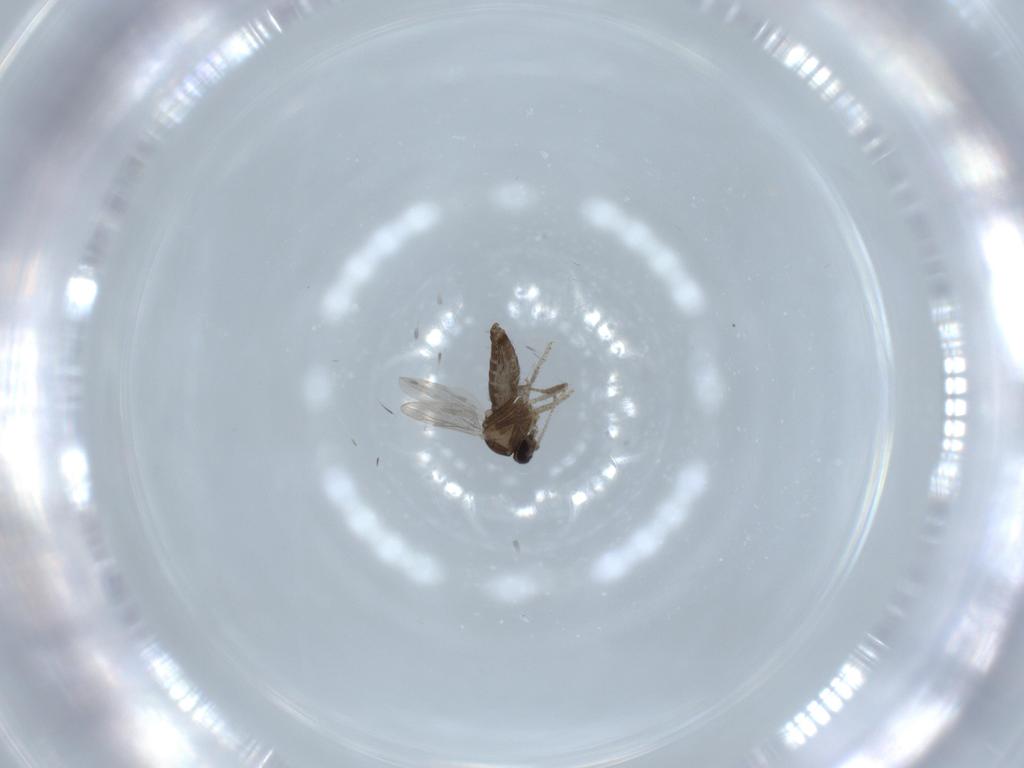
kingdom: Animalia
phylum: Arthropoda
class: Insecta
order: Diptera
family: Ceratopogonidae
